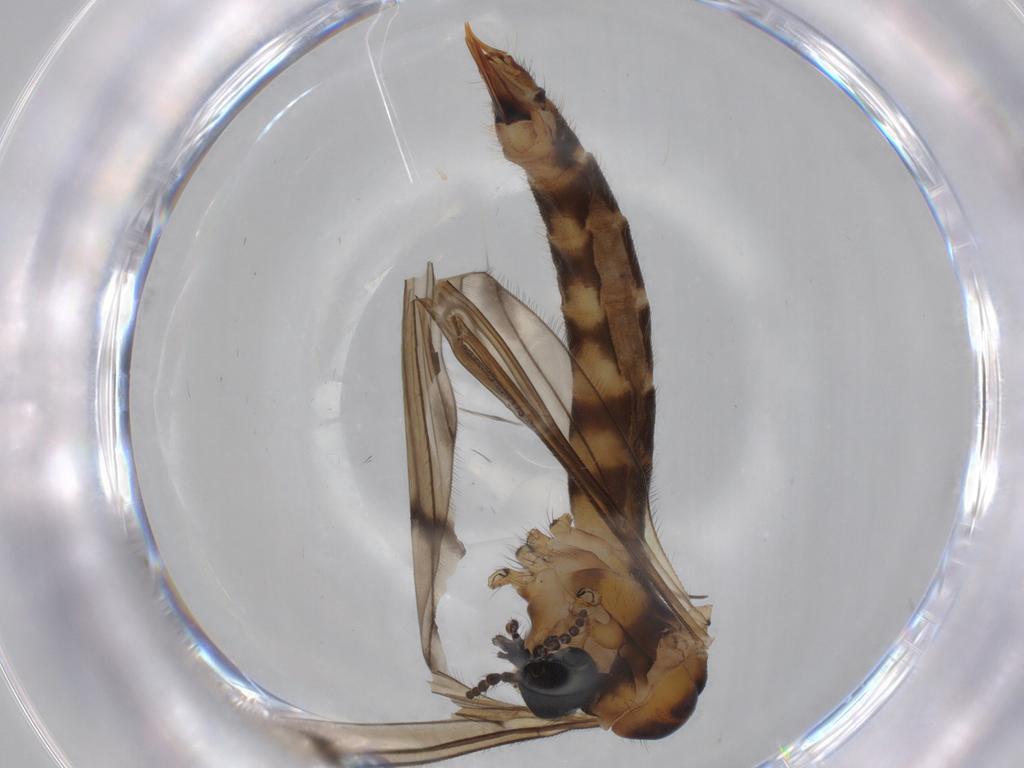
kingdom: Animalia
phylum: Arthropoda
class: Insecta
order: Diptera
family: Limoniidae
